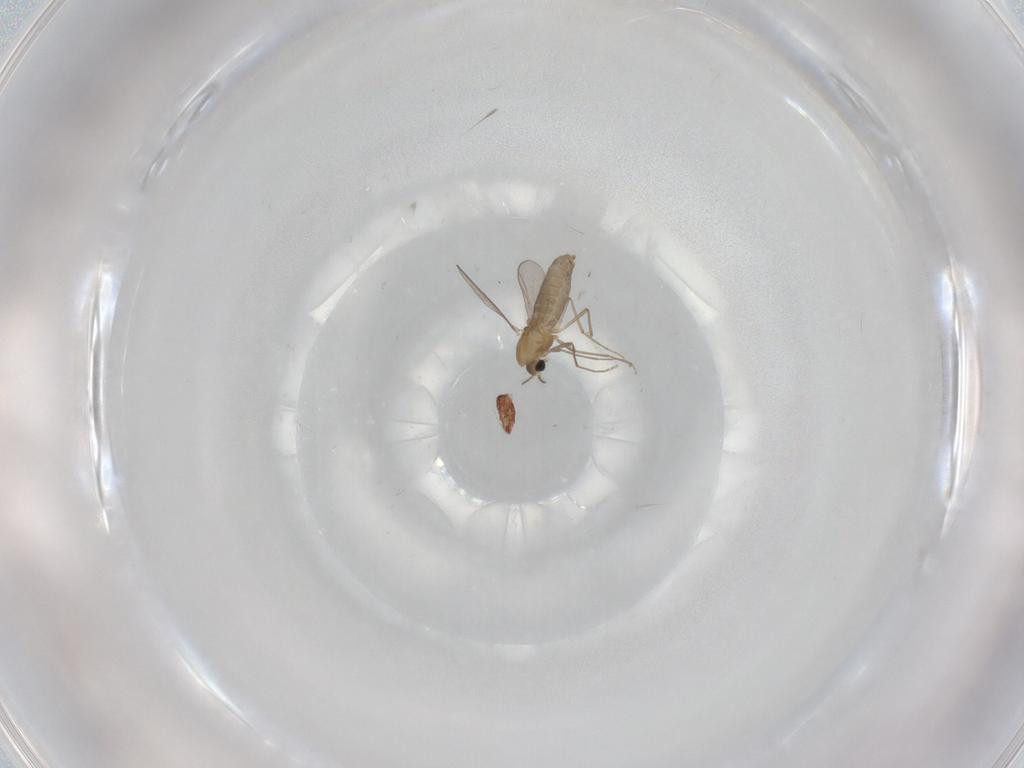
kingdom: Animalia
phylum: Arthropoda
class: Insecta
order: Diptera
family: Chironomidae
